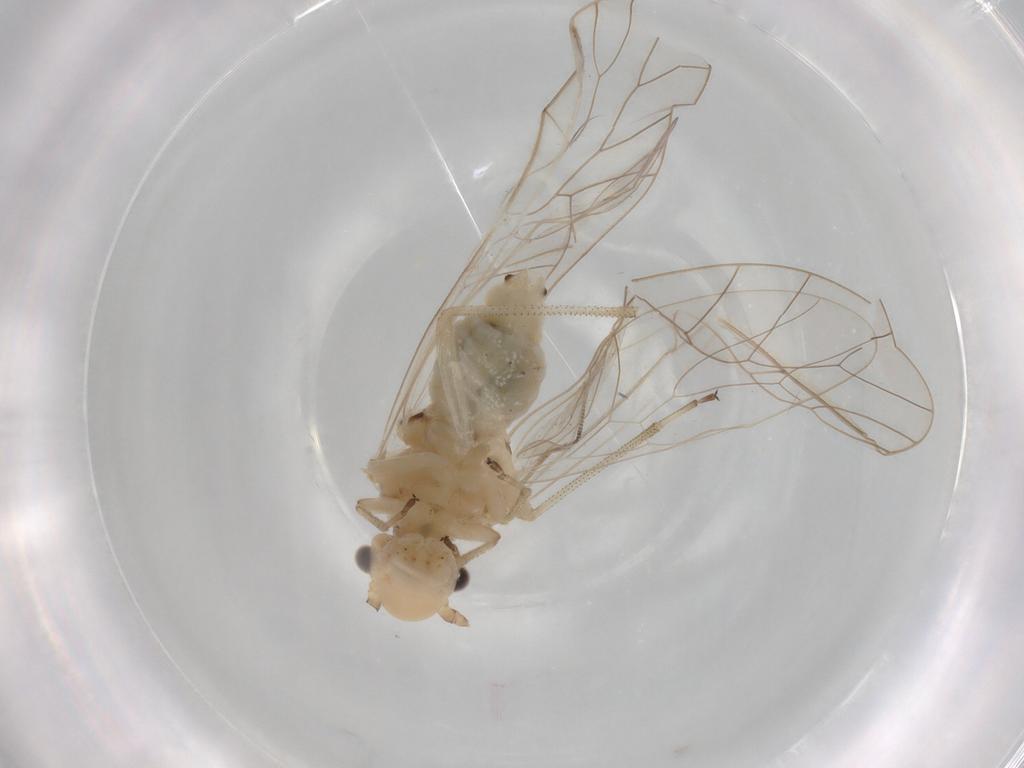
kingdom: Animalia
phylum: Arthropoda
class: Insecta
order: Psocodea
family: Lachesillidae
